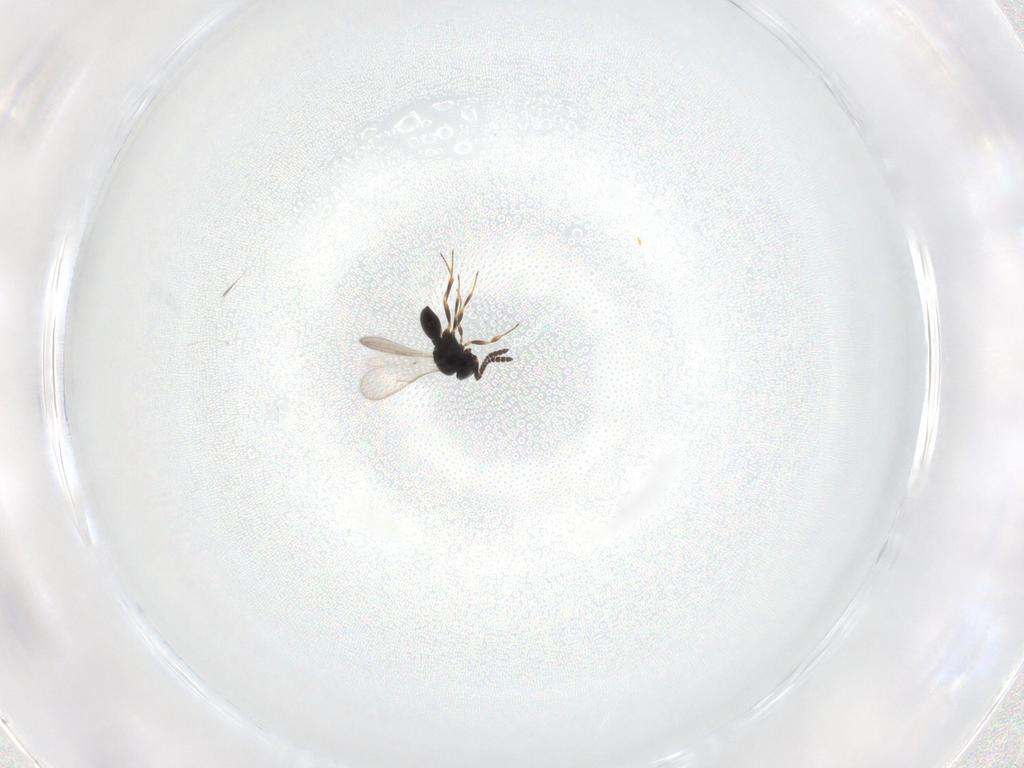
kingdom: Animalia
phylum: Arthropoda
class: Insecta
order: Hymenoptera
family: Scelionidae
